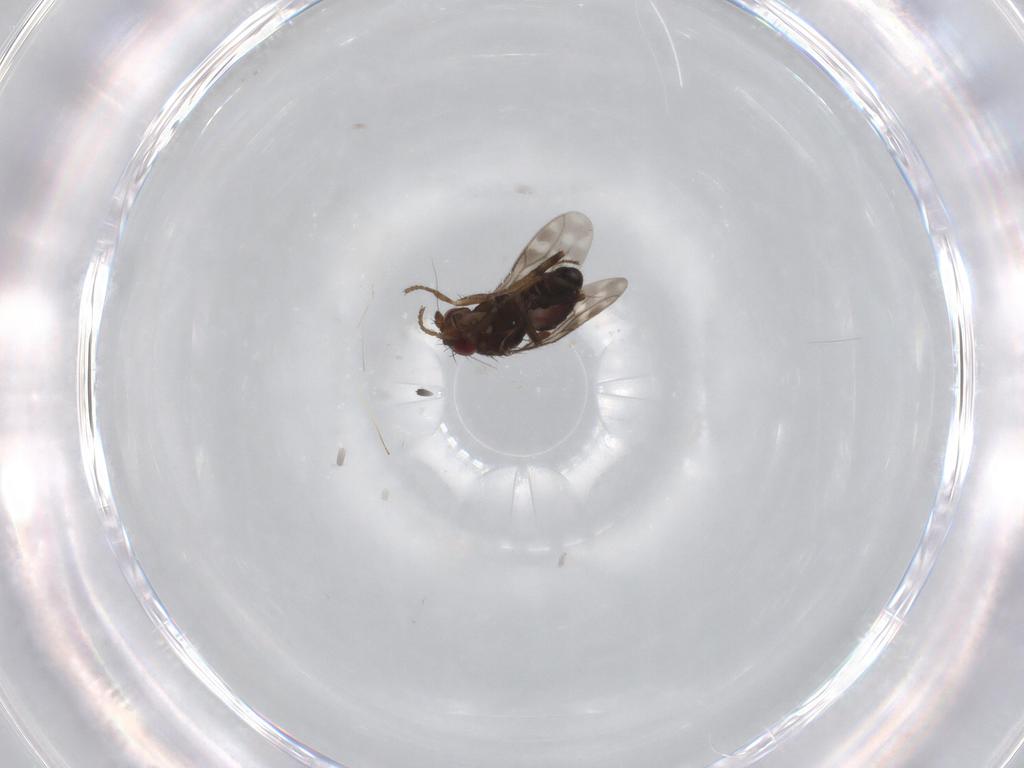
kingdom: Animalia
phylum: Arthropoda
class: Insecta
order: Diptera
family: Sphaeroceridae
